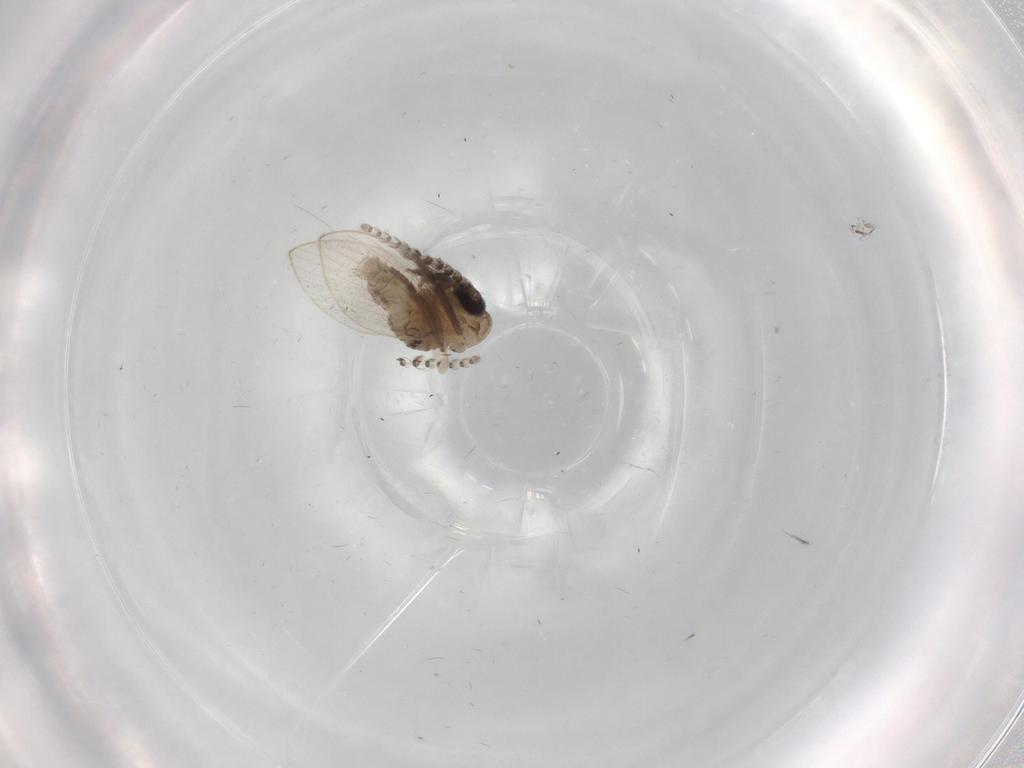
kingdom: Animalia
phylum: Arthropoda
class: Insecta
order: Diptera
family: Psychodidae
